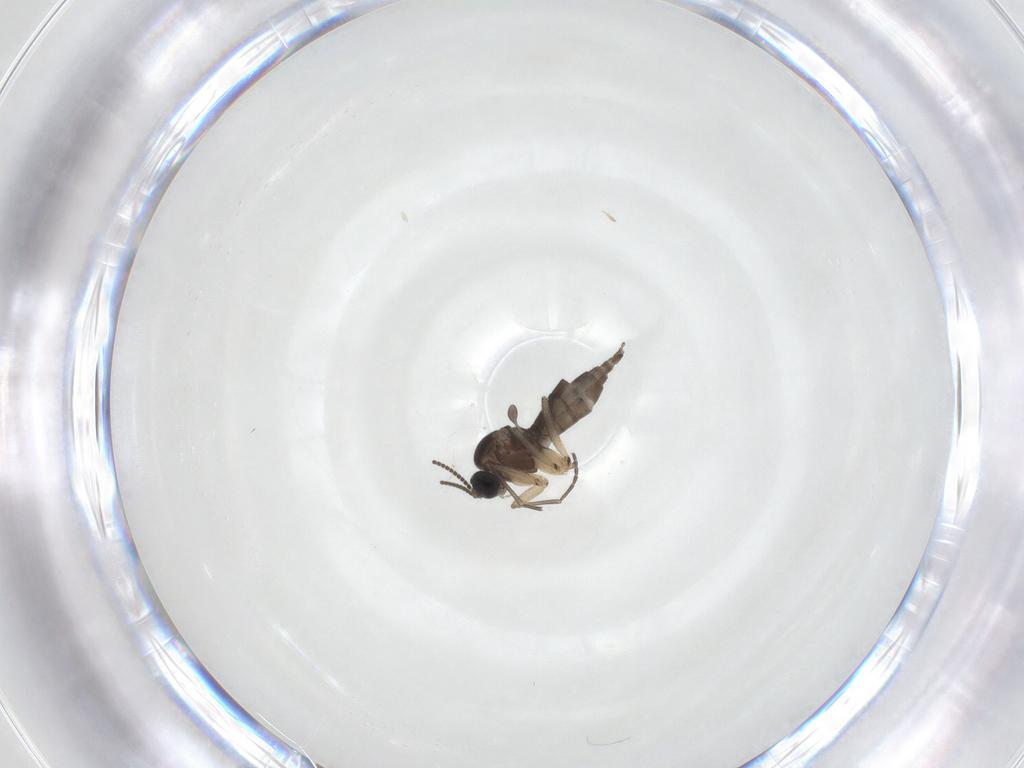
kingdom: Animalia
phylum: Arthropoda
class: Insecta
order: Diptera
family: Sciaridae
